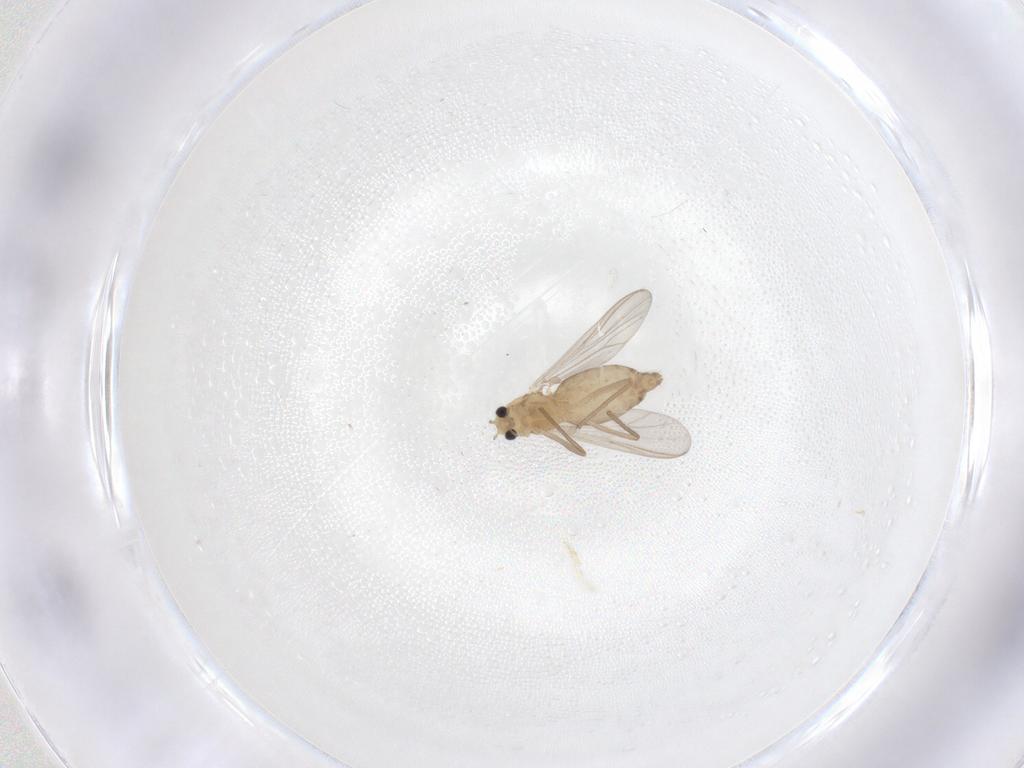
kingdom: Animalia
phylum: Arthropoda
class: Insecta
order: Diptera
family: Chironomidae
